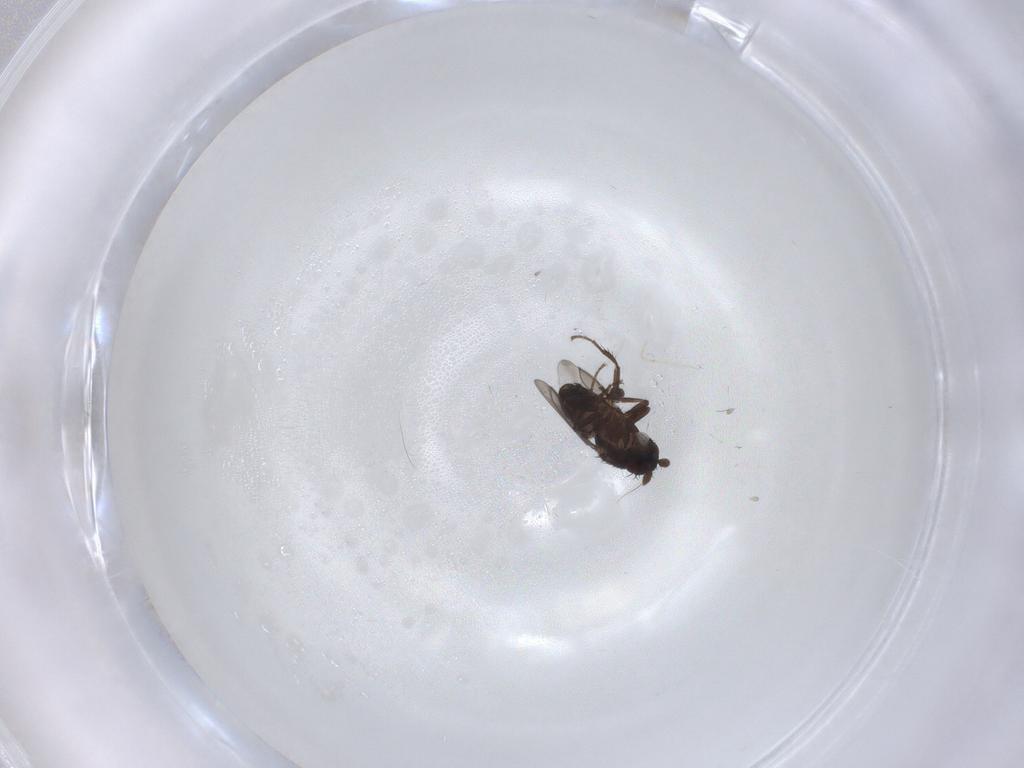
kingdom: Animalia
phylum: Arthropoda
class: Insecta
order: Diptera
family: Sphaeroceridae
